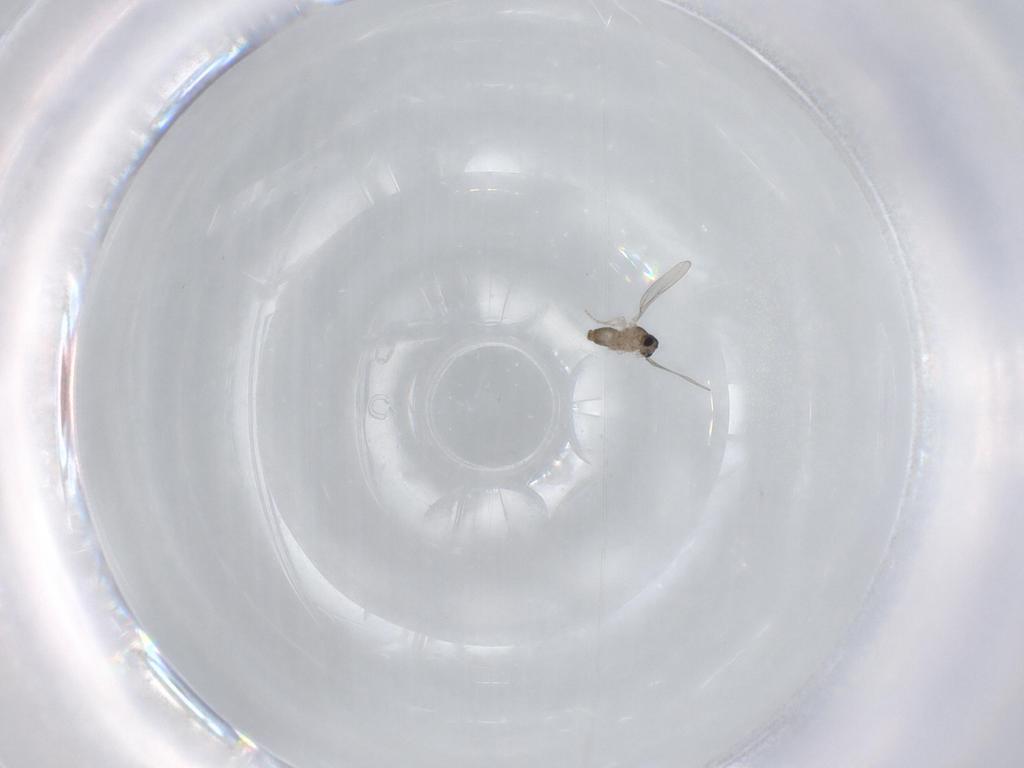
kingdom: Animalia
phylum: Arthropoda
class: Insecta
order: Diptera
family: Cecidomyiidae
